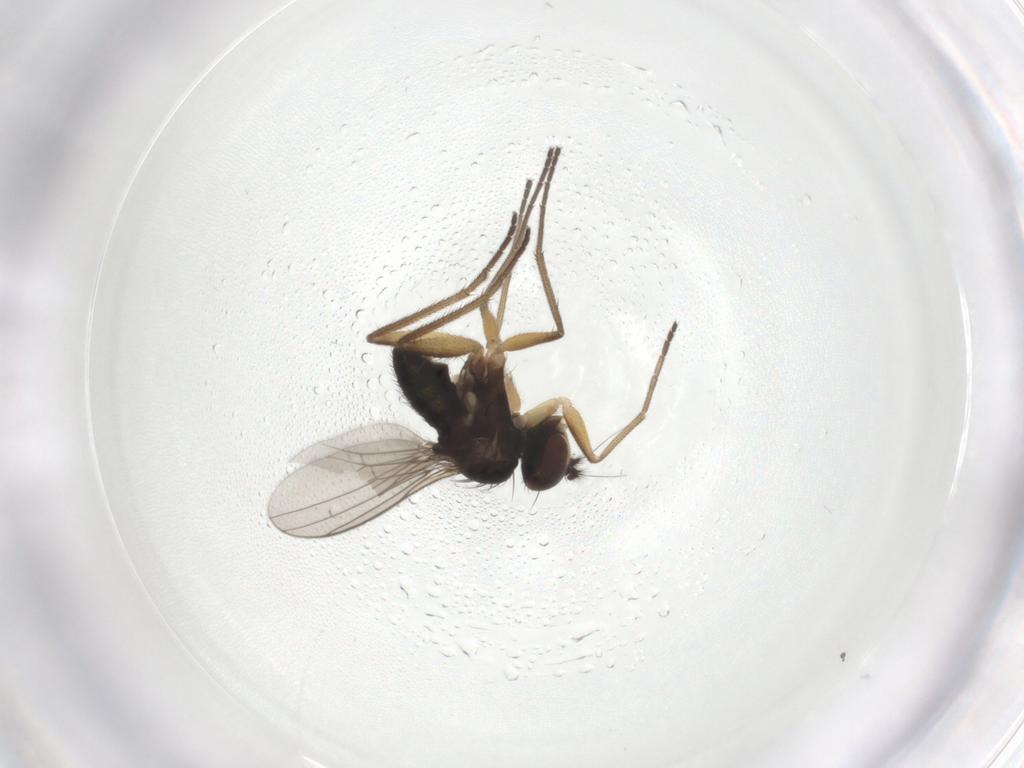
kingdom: Animalia
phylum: Arthropoda
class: Insecta
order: Diptera
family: Dolichopodidae
